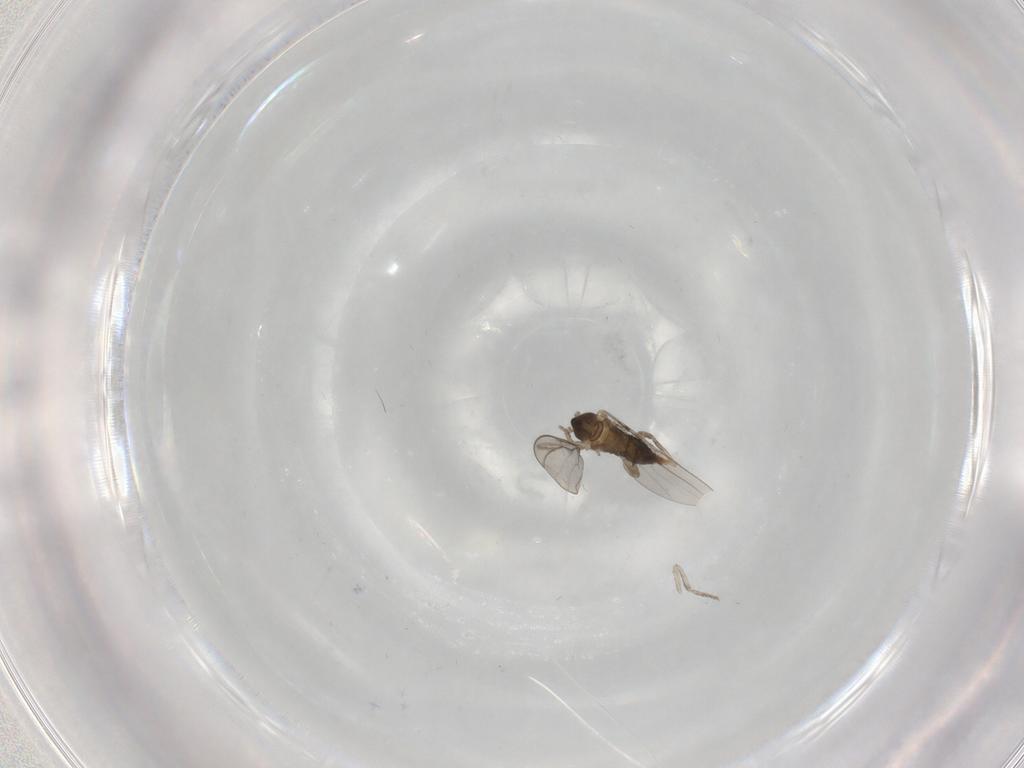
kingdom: Animalia
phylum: Arthropoda
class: Insecta
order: Diptera
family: Cecidomyiidae
